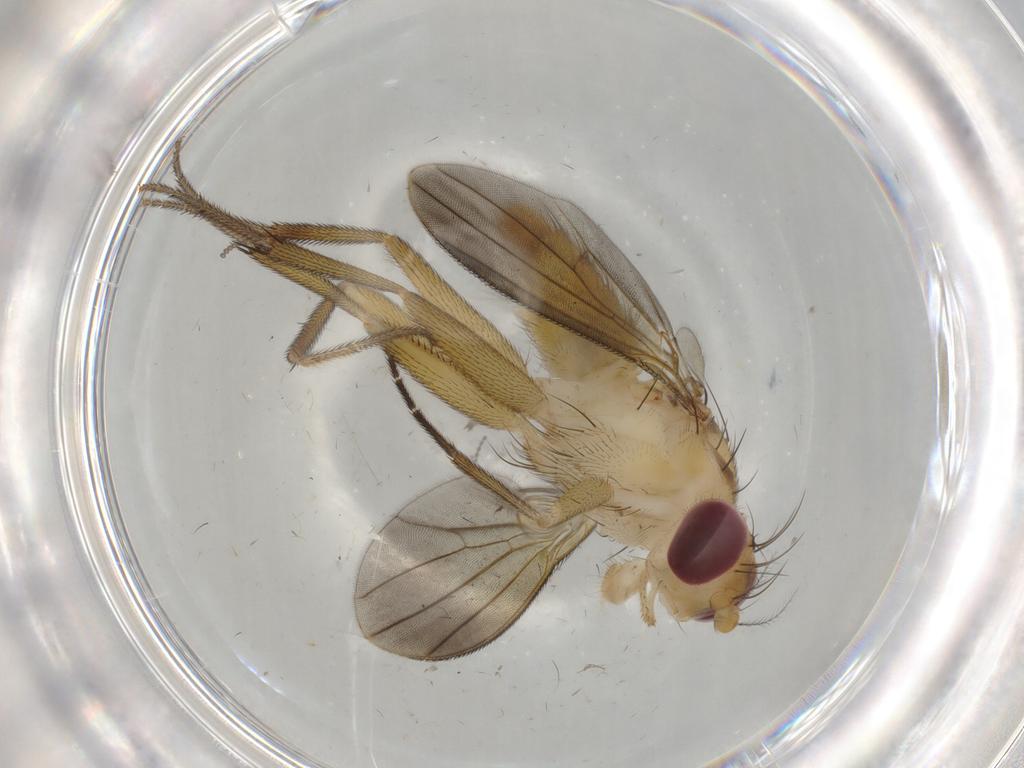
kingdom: Animalia
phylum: Arthropoda
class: Insecta
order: Diptera
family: Clusiidae
